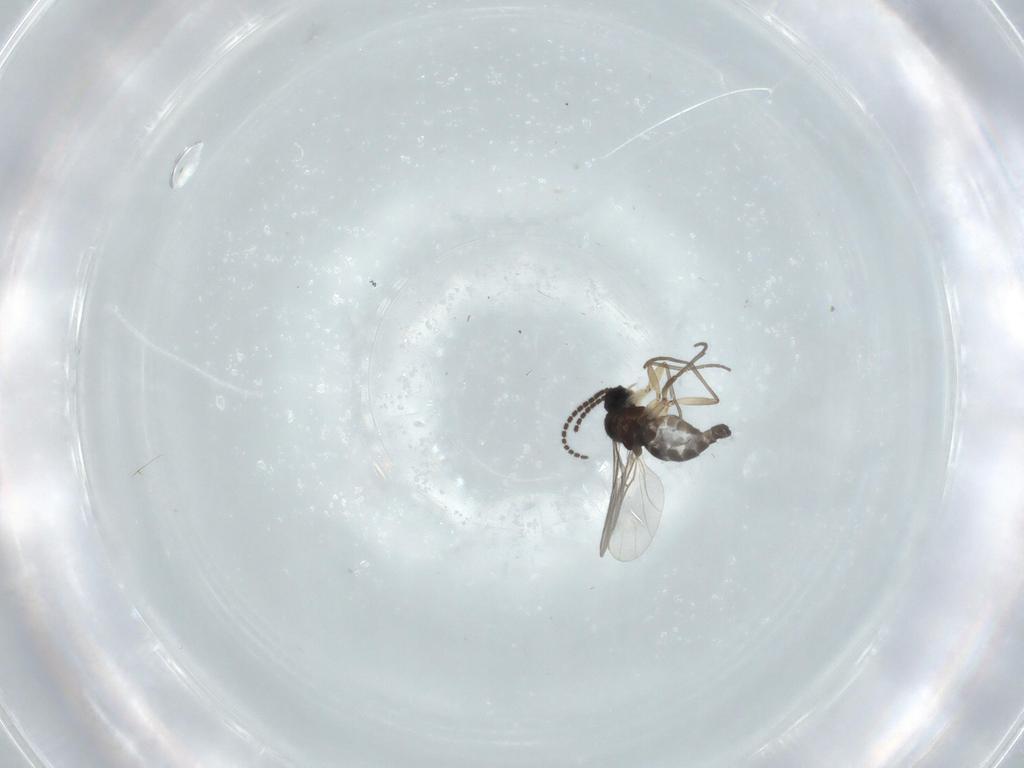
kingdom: Animalia
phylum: Arthropoda
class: Insecta
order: Diptera
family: Sciaridae
